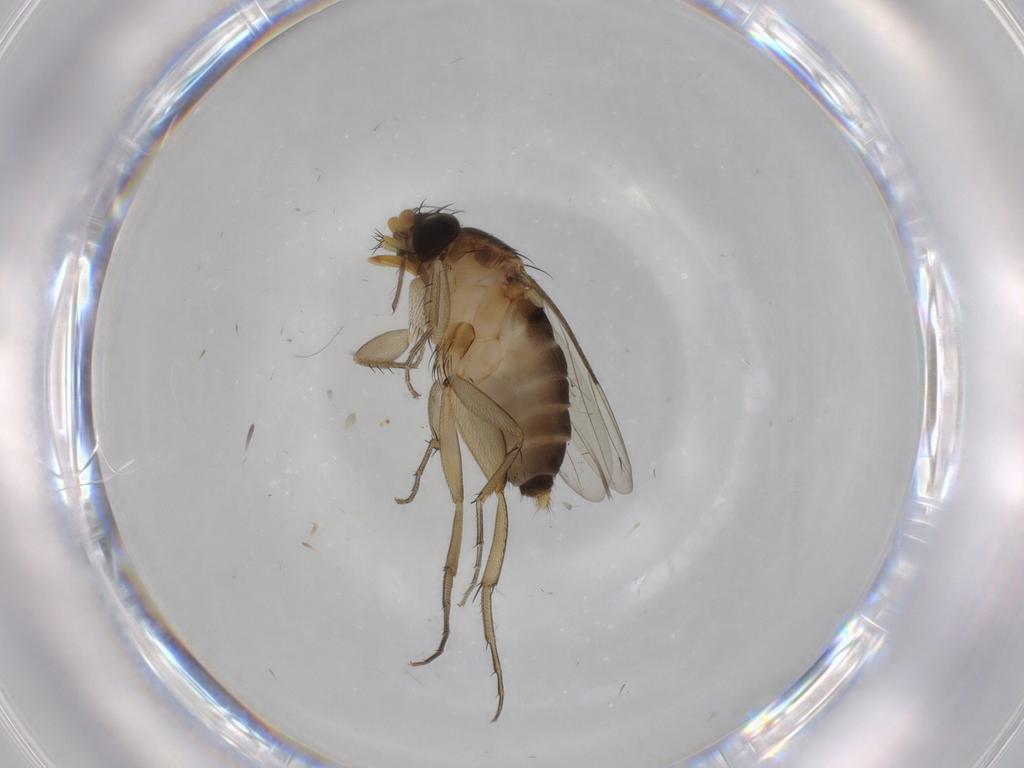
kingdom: Animalia
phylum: Arthropoda
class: Insecta
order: Diptera
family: Phoridae
